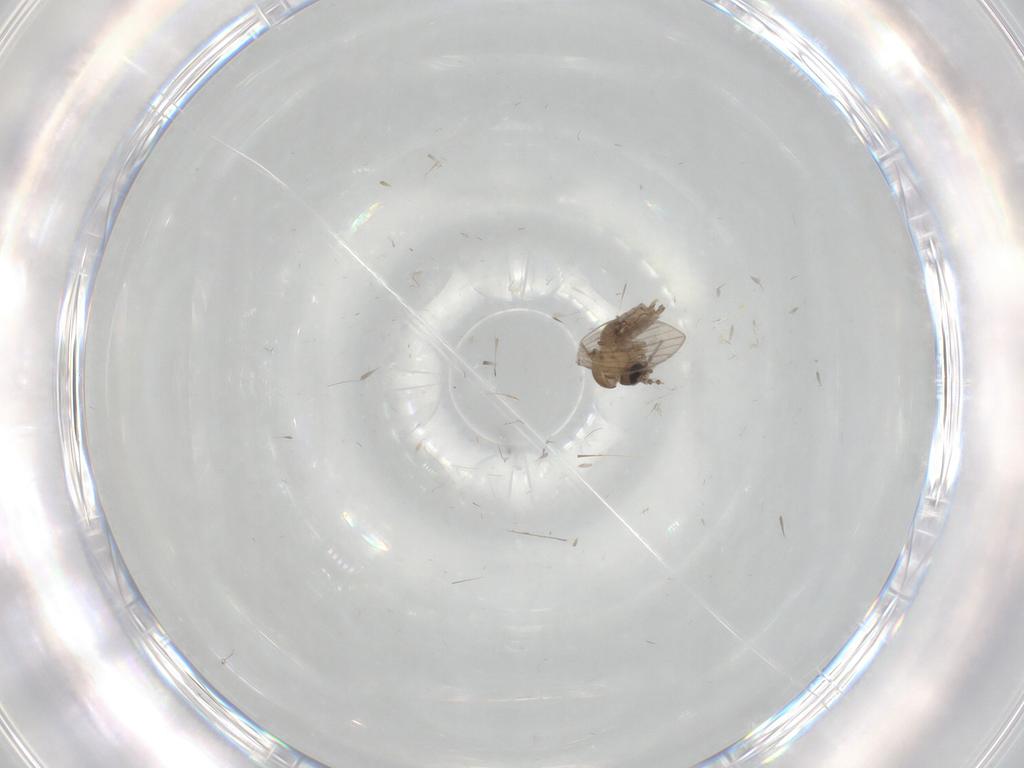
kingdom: Animalia
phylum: Arthropoda
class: Insecta
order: Diptera
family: Psychodidae
